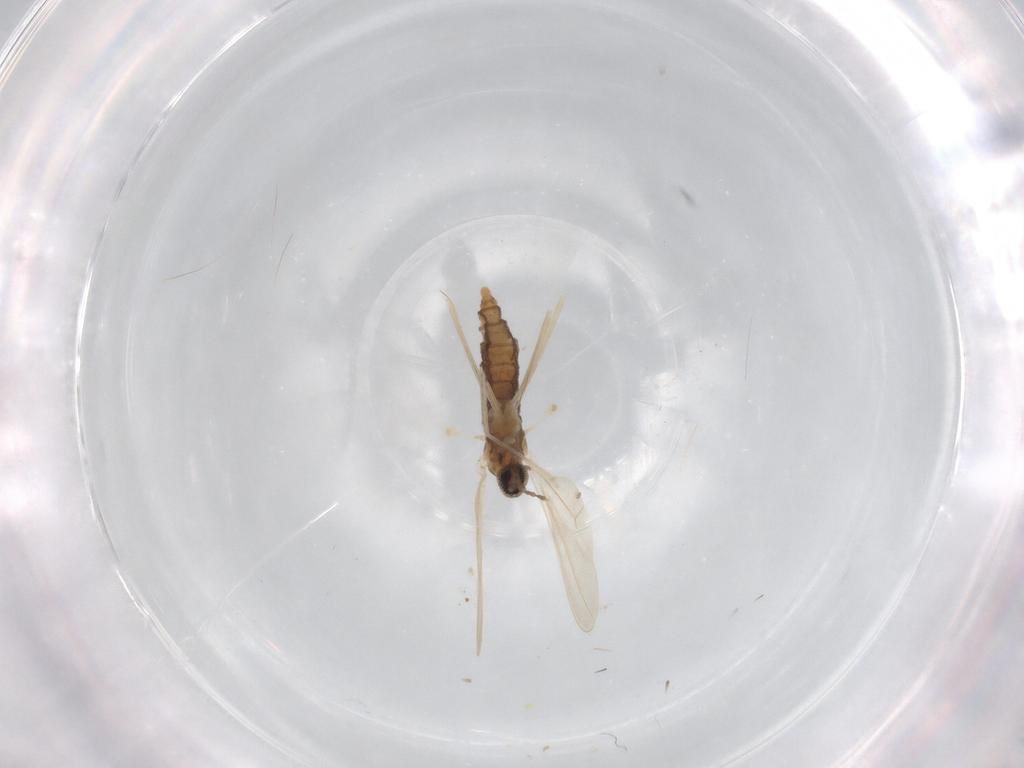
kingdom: Animalia
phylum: Arthropoda
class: Insecta
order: Diptera
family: Cecidomyiidae
